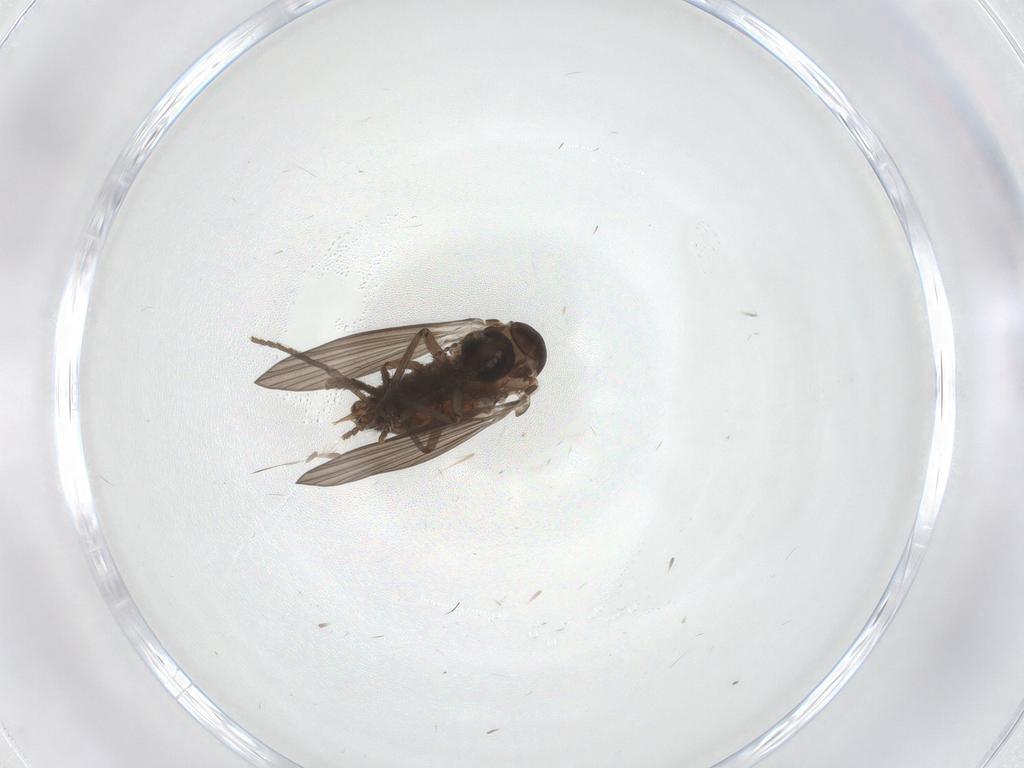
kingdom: Animalia
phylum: Arthropoda
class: Insecta
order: Diptera
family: Psychodidae
